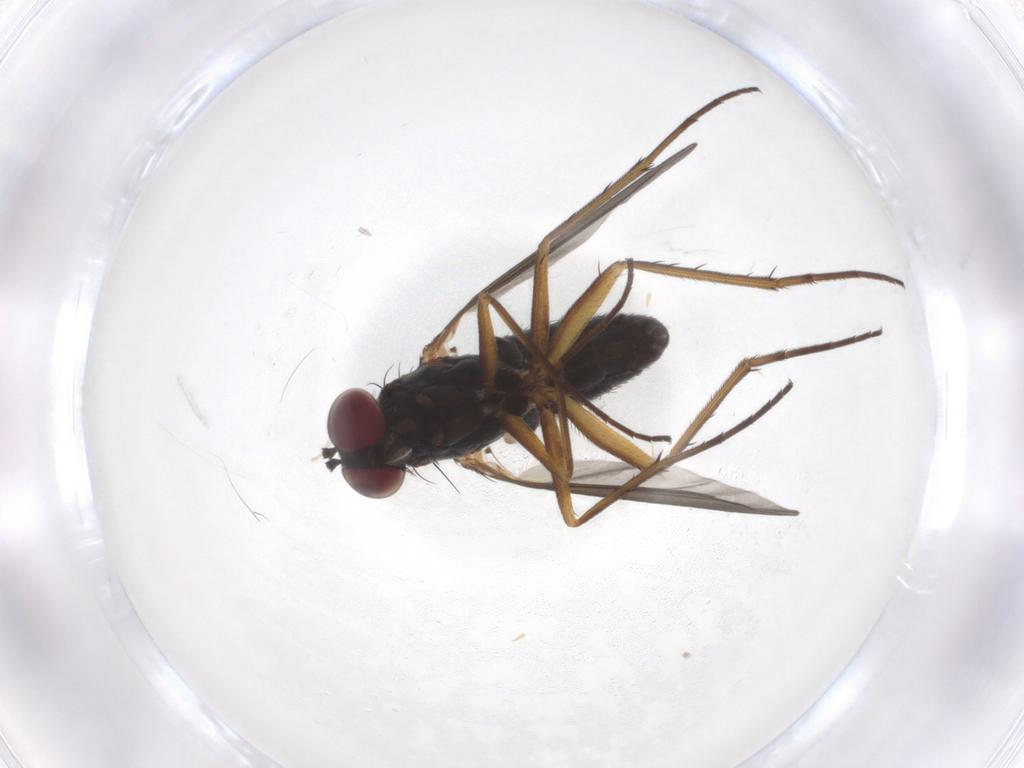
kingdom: Animalia
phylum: Arthropoda
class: Insecta
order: Diptera
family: Dolichopodidae
